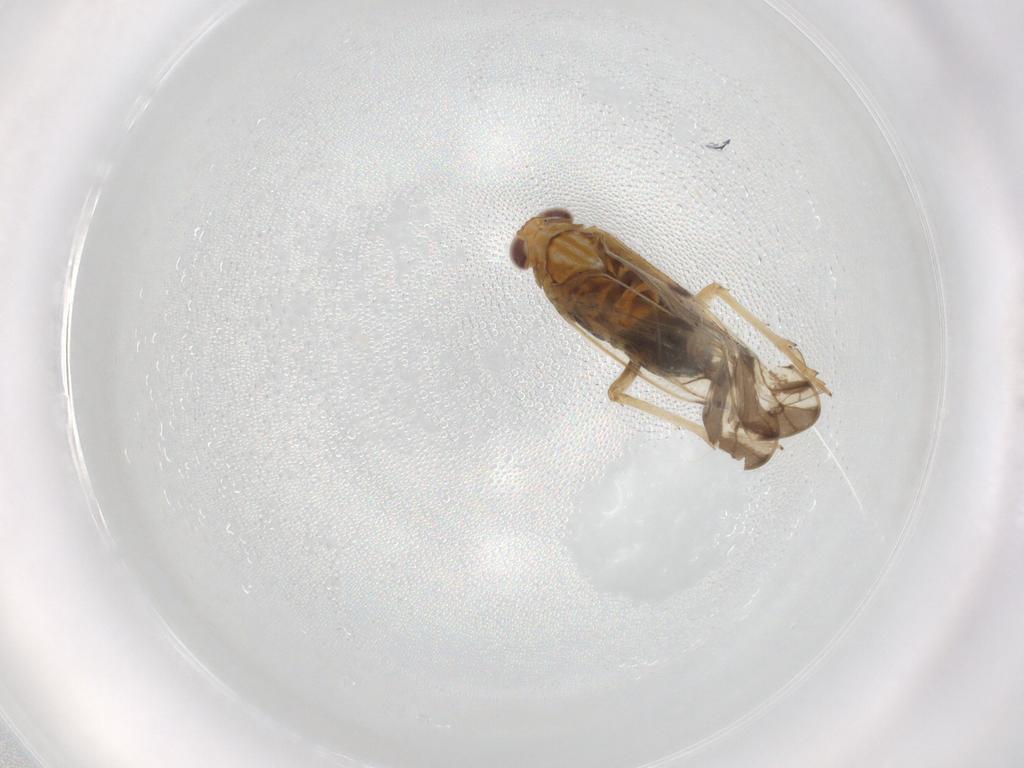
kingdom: Animalia
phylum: Arthropoda
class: Insecta
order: Hemiptera
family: Delphacidae
